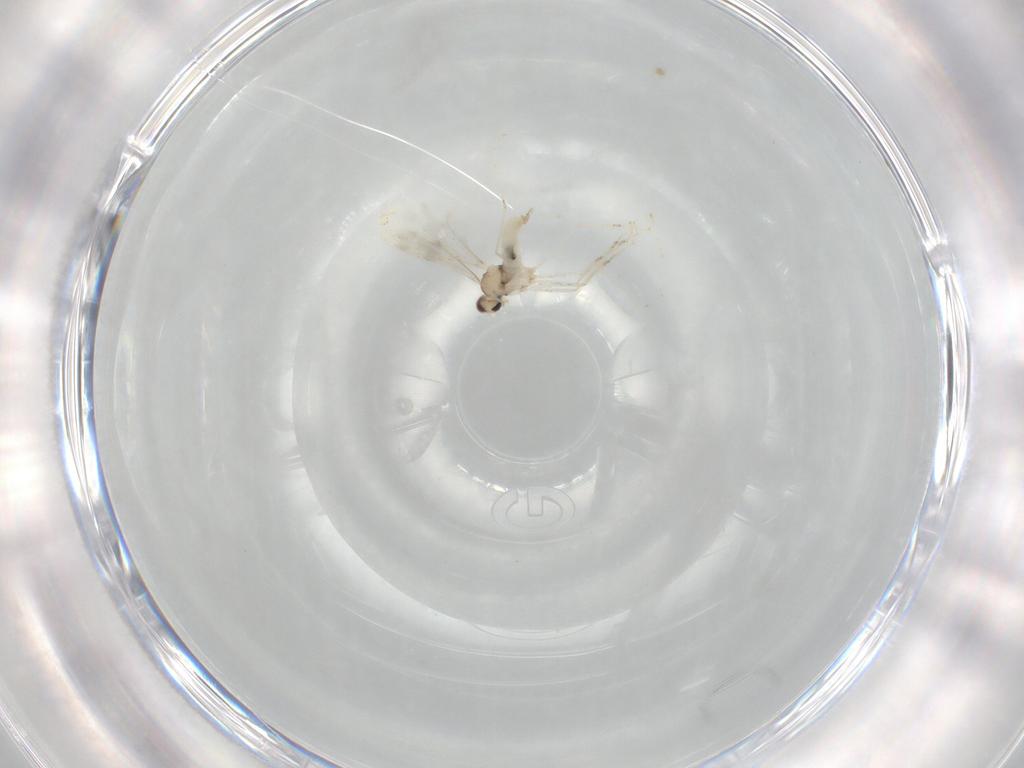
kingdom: Animalia
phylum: Arthropoda
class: Insecta
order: Diptera
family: Cecidomyiidae
